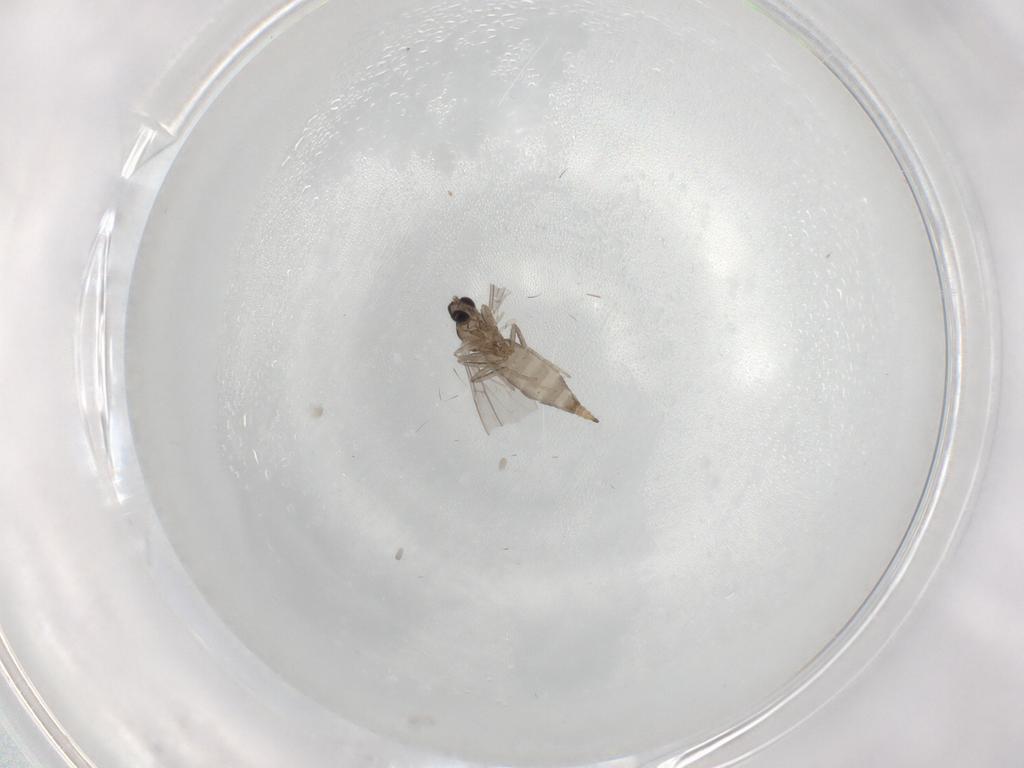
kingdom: Animalia
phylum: Arthropoda
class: Insecta
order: Diptera
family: Cecidomyiidae
